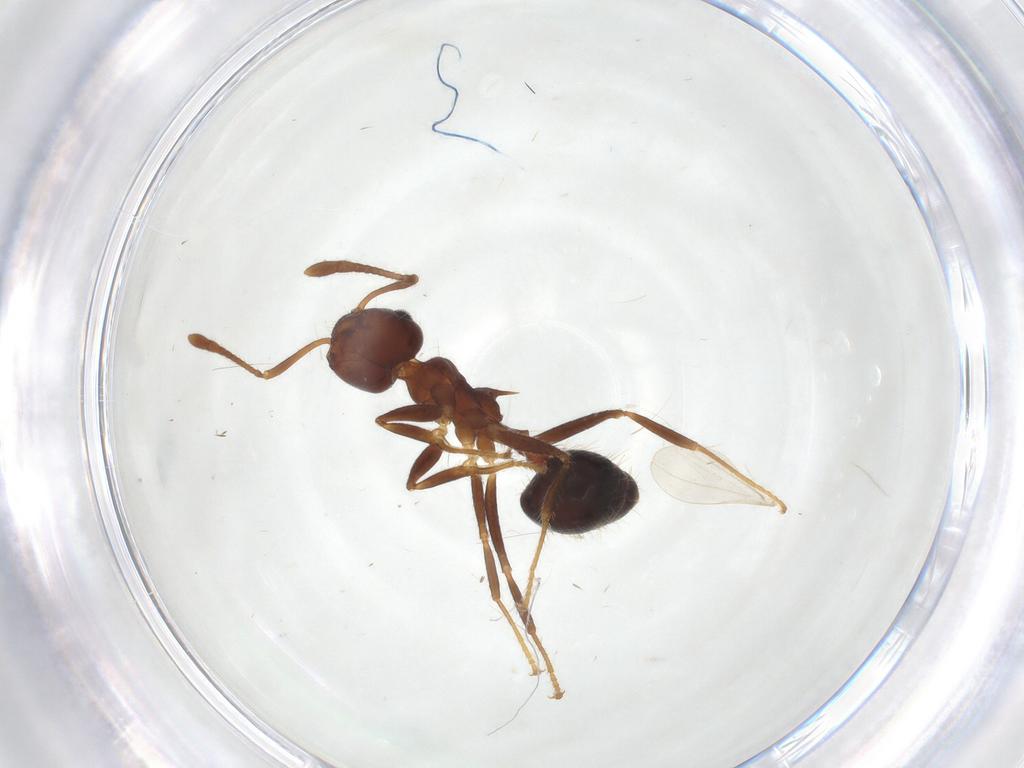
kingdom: Animalia
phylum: Arthropoda
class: Insecta
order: Hymenoptera
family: Formicidae
